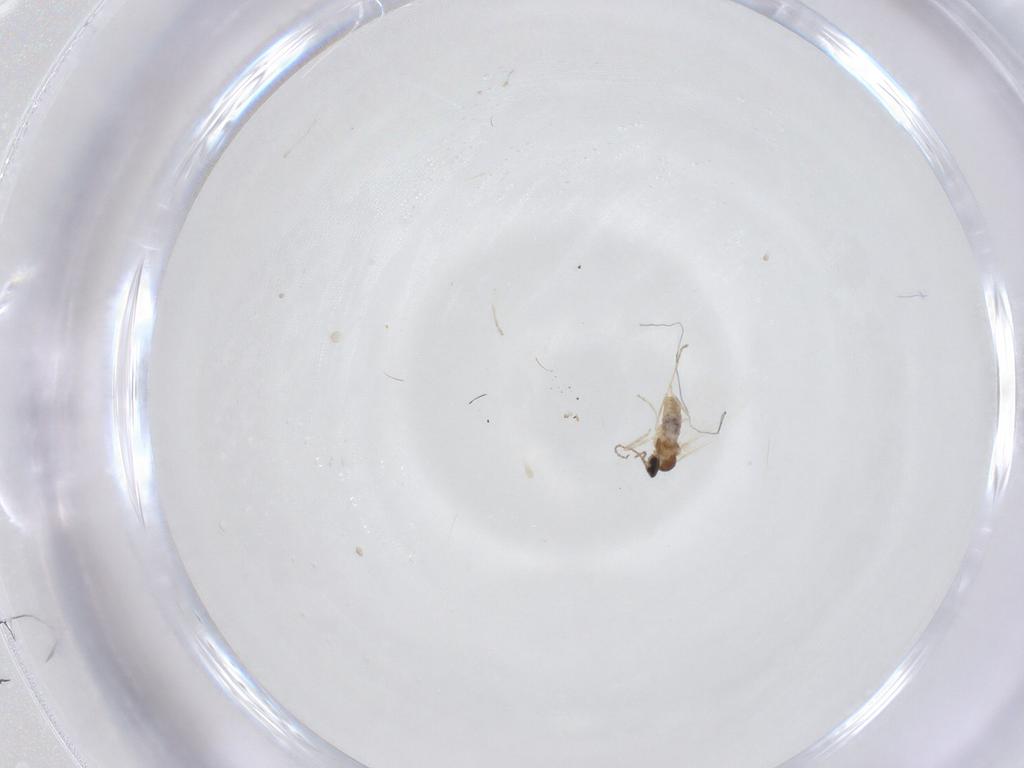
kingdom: Animalia
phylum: Arthropoda
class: Insecta
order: Diptera
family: Cecidomyiidae
